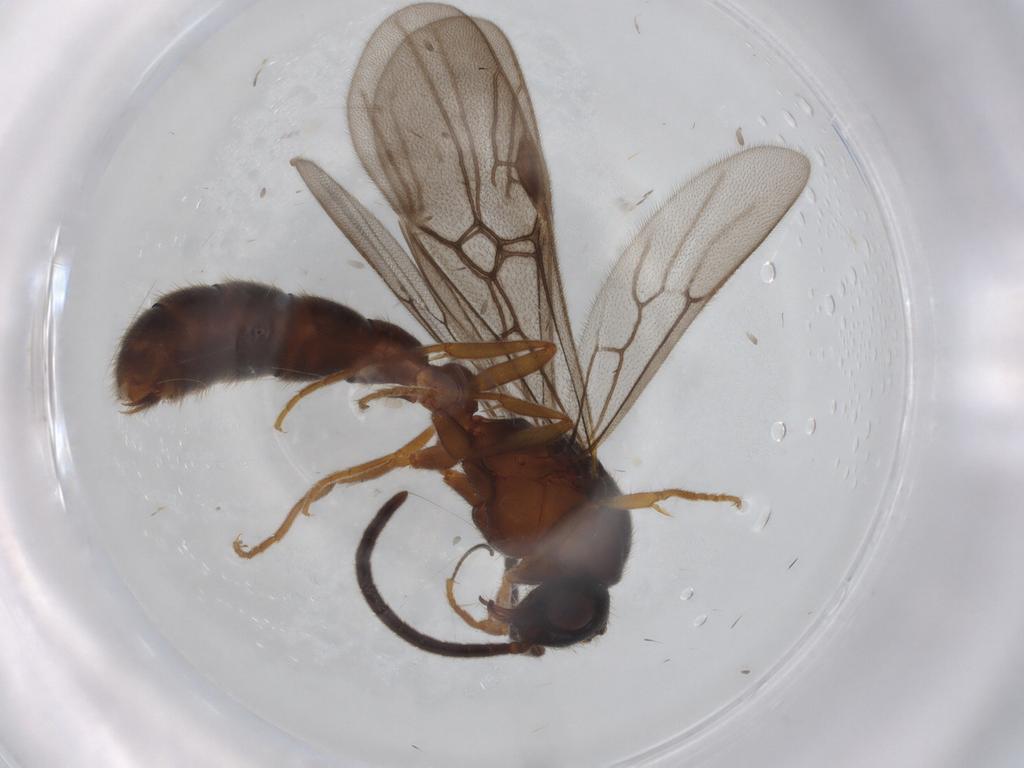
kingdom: Animalia
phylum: Arthropoda
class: Insecta
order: Hymenoptera
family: Formicidae
